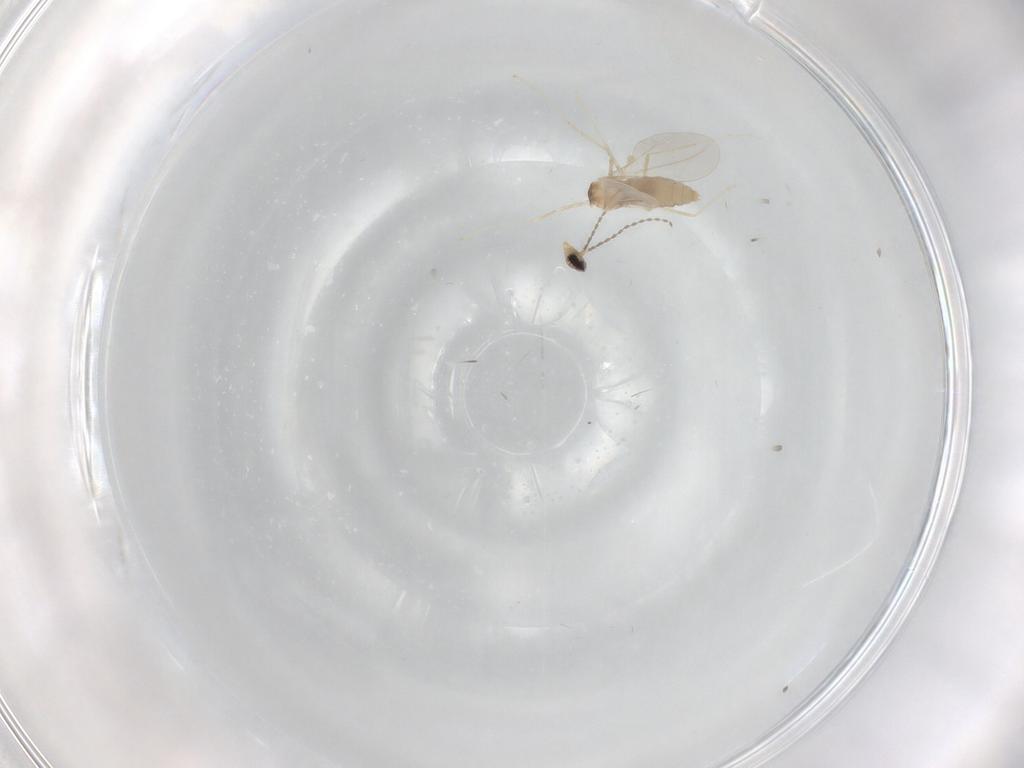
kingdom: Animalia
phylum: Arthropoda
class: Insecta
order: Diptera
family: Cecidomyiidae
